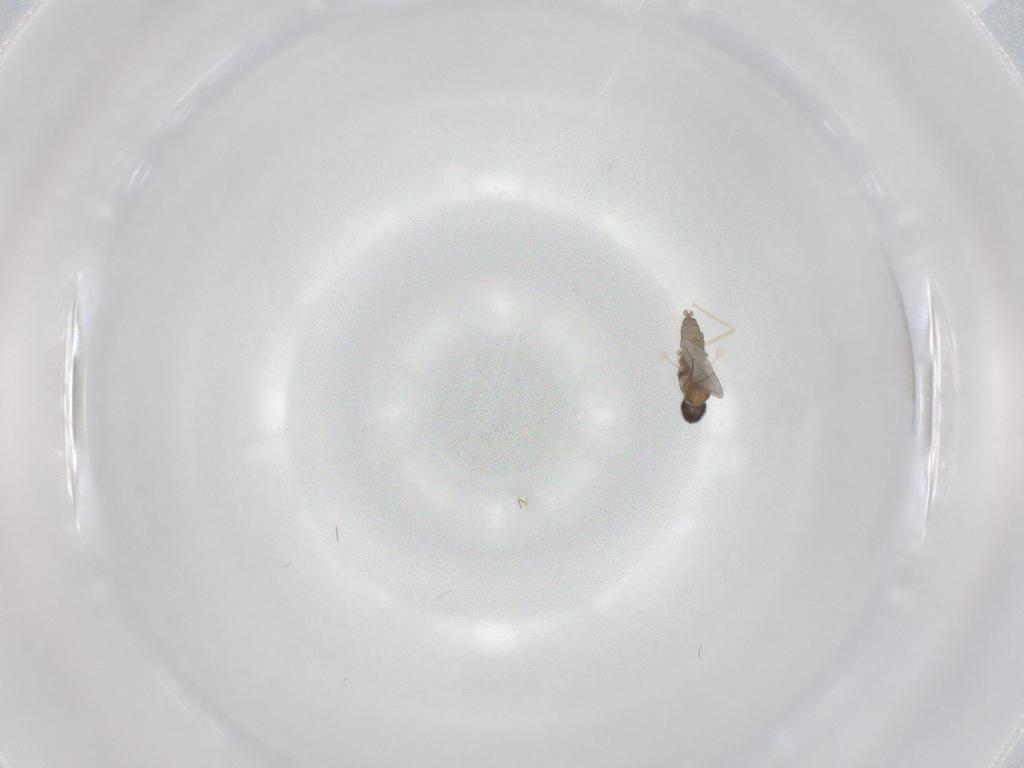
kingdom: Animalia
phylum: Arthropoda
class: Insecta
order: Diptera
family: Cecidomyiidae
